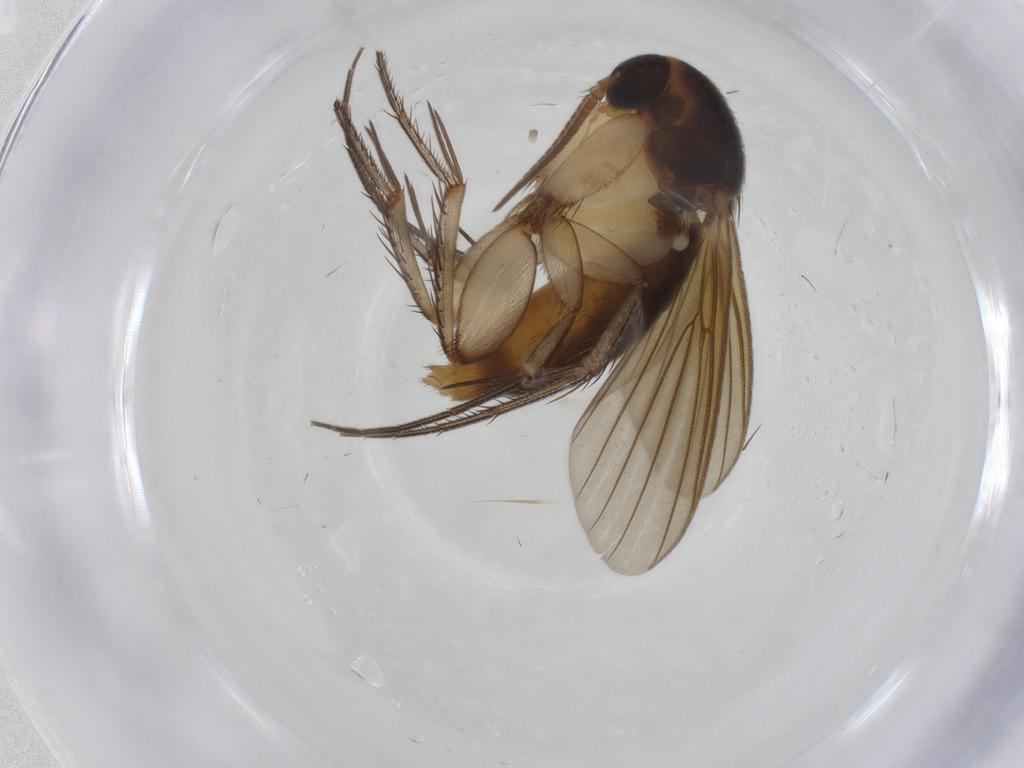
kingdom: Animalia
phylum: Arthropoda
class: Insecta
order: Diptera
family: Mycetophilidae
